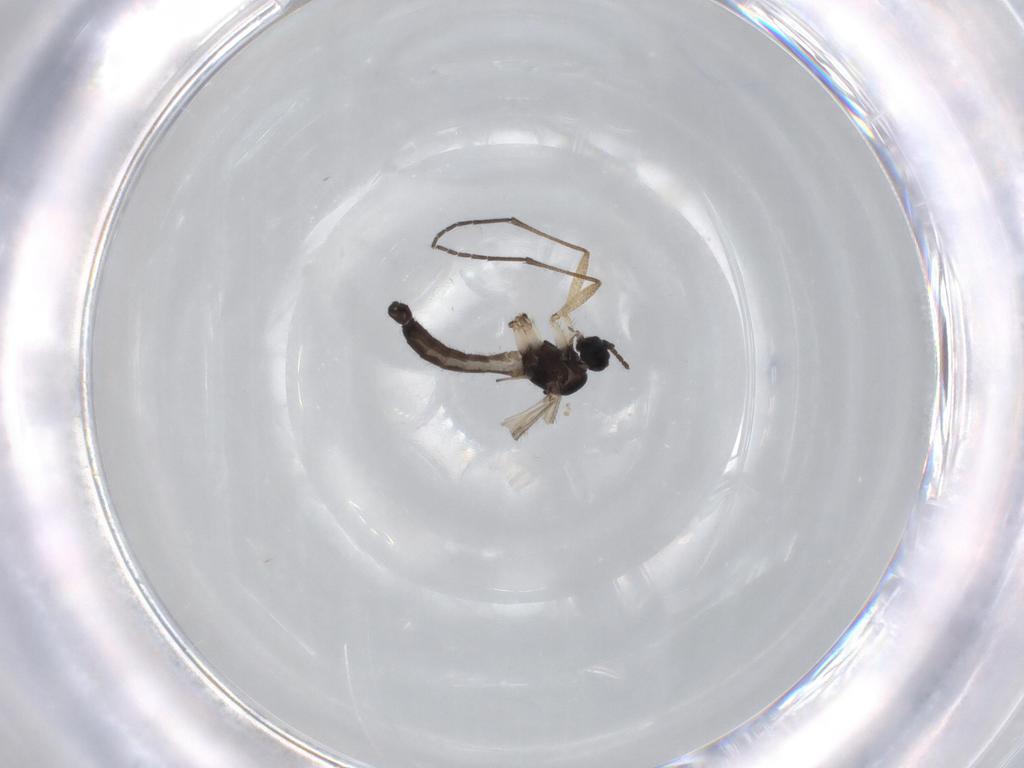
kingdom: Animalia
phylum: Arthropoda
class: Insecta
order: Diptera
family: Sciaridae
